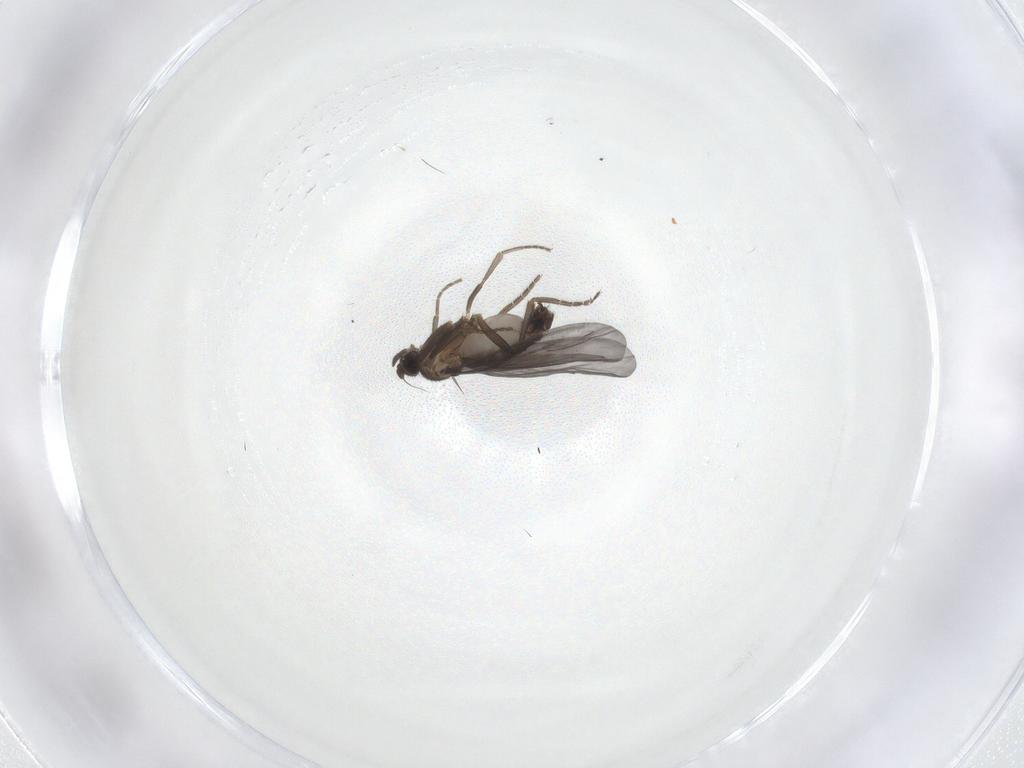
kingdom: Animalia
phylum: Arthropoda
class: Insecta
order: Diptera
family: Phoridae
